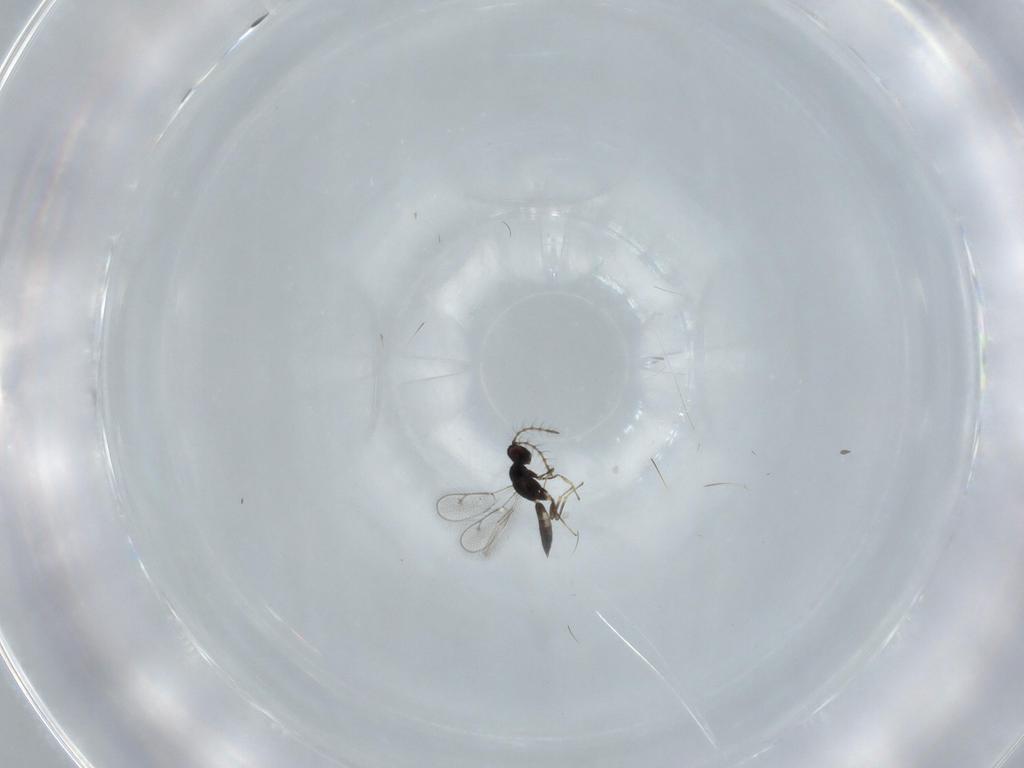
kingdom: Animalia
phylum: Arthropoda
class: Insecta
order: Hymenoptera
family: Pteromalidae
